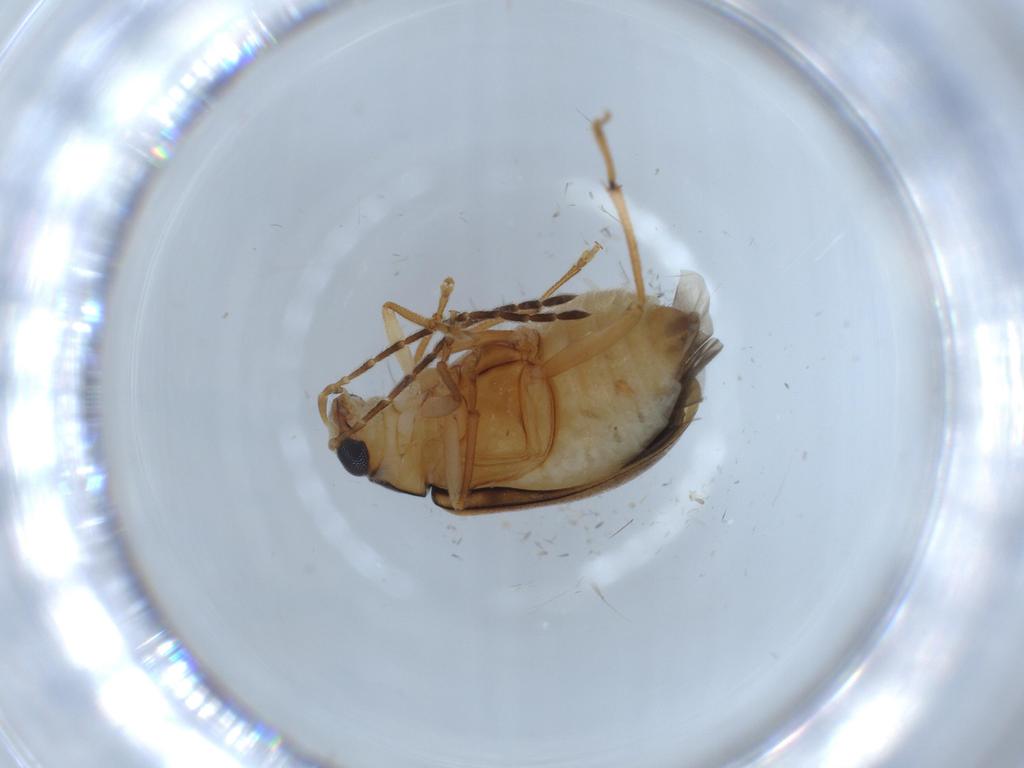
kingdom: Animalia
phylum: Arthropoda
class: Insecta
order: Coleoptera
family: Chrysomelidae
